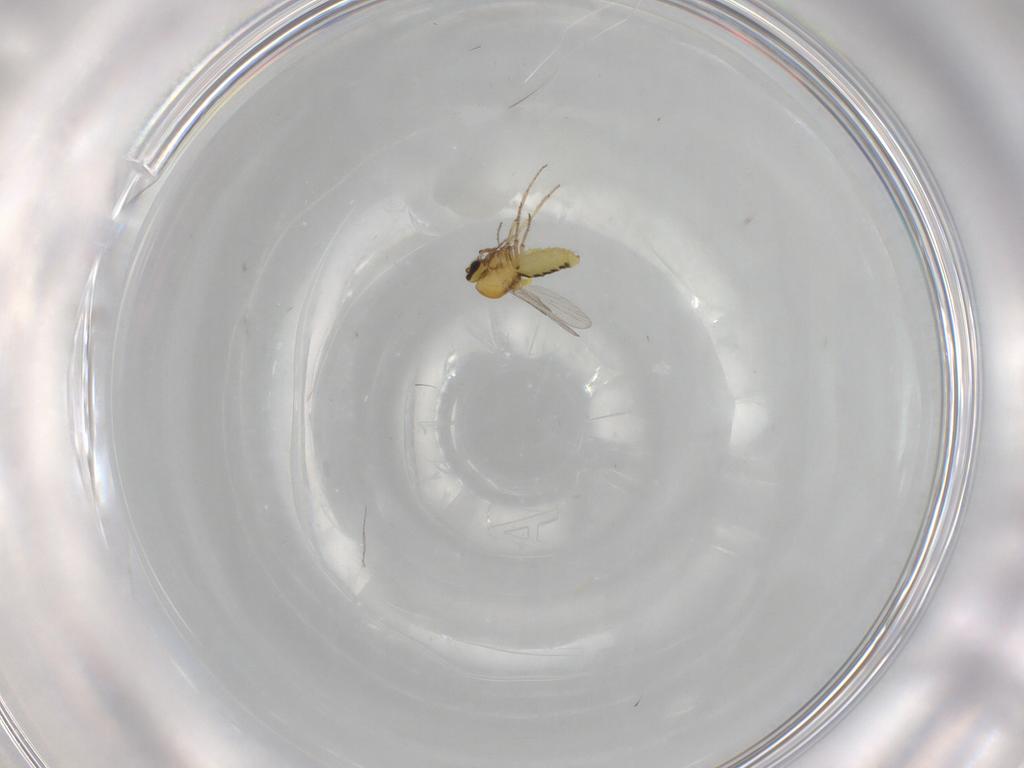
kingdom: Animalia
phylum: Arthropoda
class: Insecta
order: Diptera
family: Ceratopogonidae
